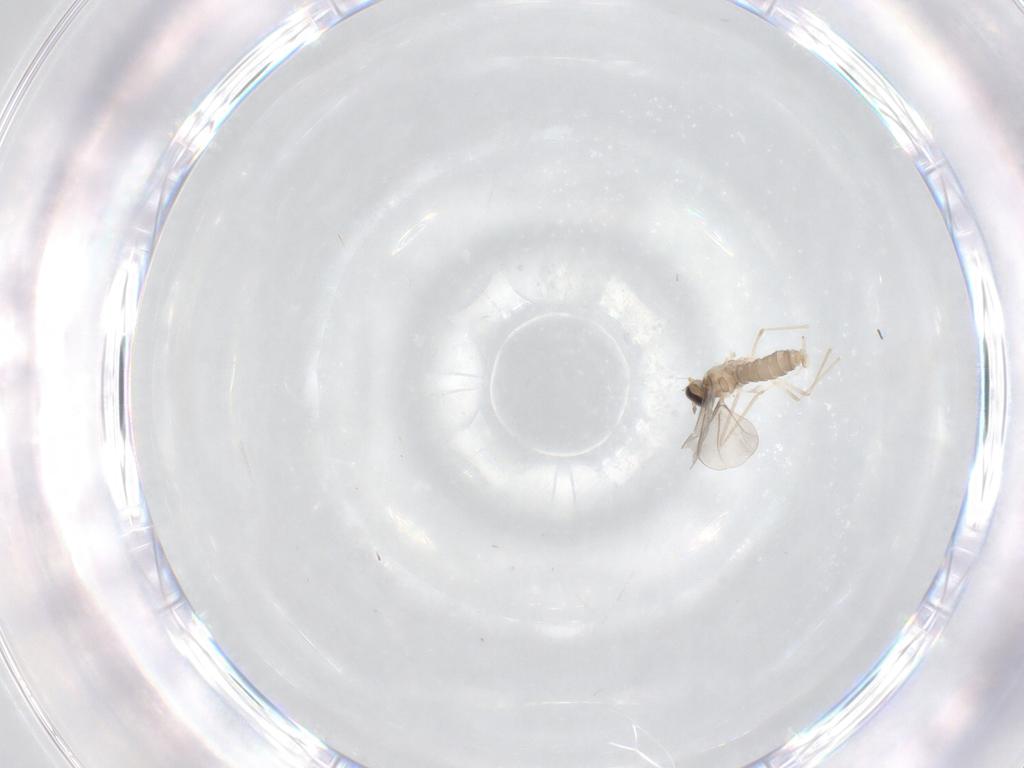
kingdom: Animalia
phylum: Arthropoda
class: Insecta
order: Diptera
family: Cecidomyiidae
